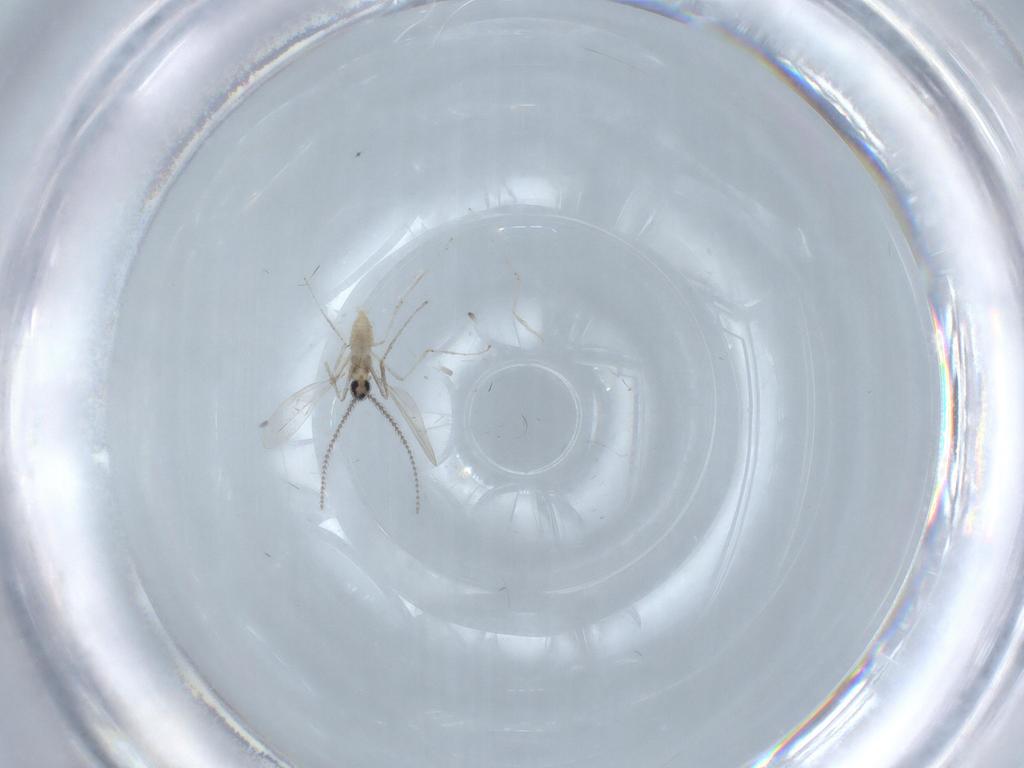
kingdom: Animalia
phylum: Arthropoda
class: Insecta
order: Diptera
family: Cecidomyiidae
